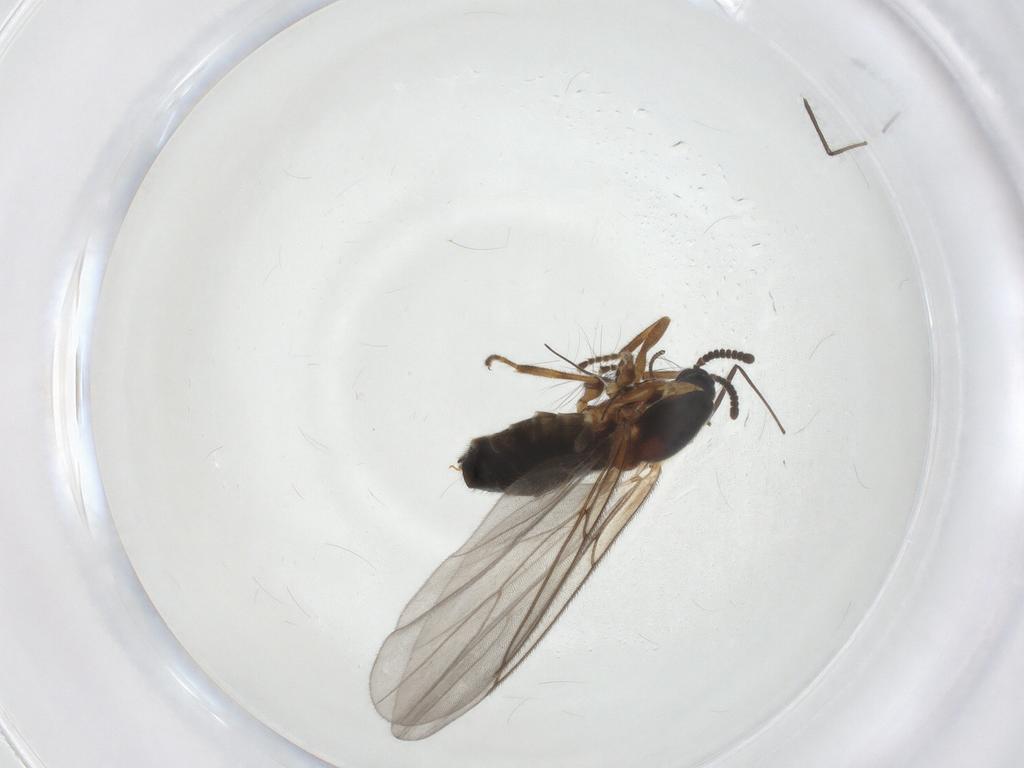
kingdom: Animalia
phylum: Arthropoda
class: Insecta
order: Diptera
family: Scatopsidae
